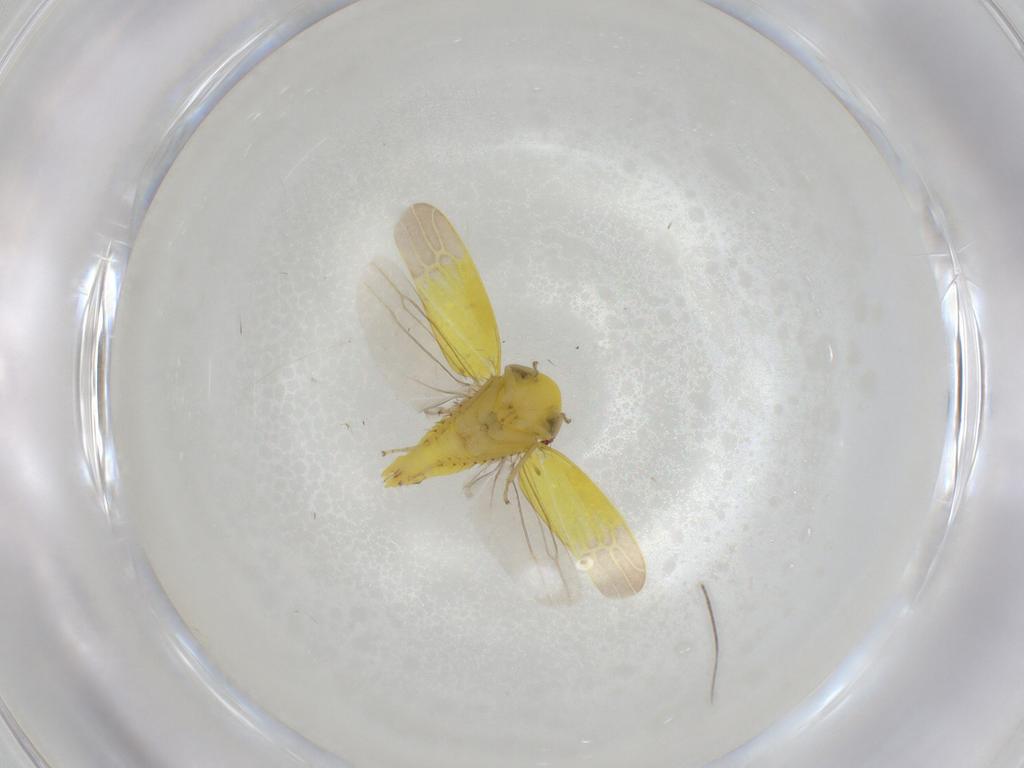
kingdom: Animalia
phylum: Arthropoda
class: Insecta
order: Hemiptera
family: Cicadellidae
